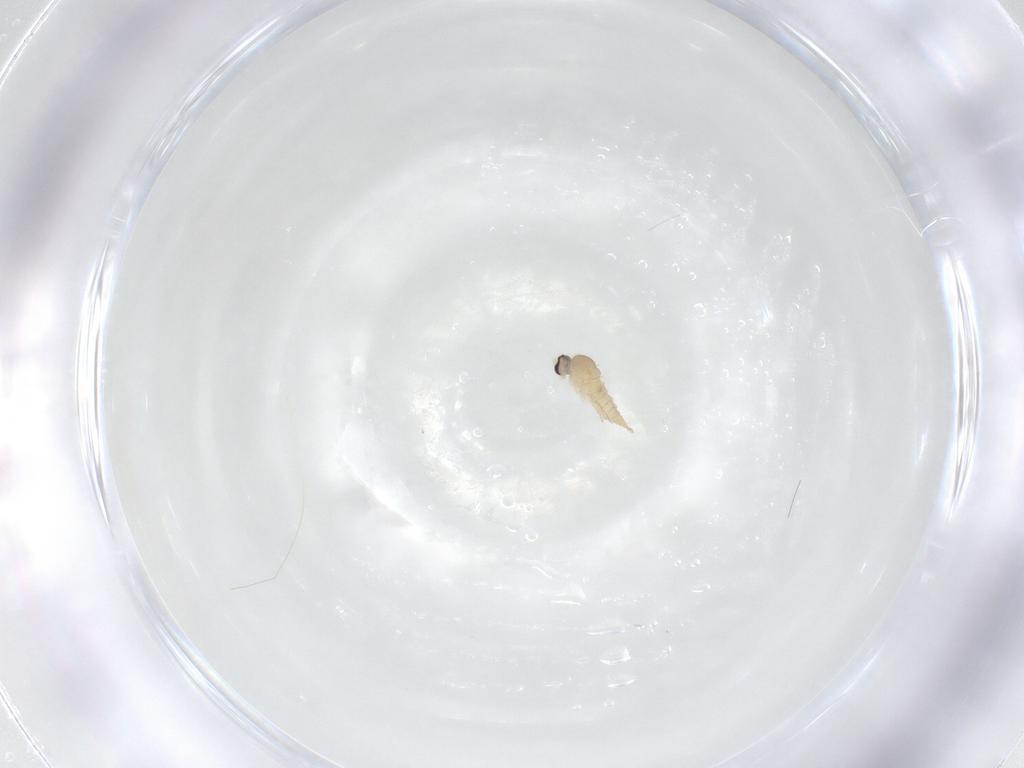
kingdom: Animalia
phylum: Arthropoda
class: Insecta
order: Diptera
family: Cecidomyiidae
